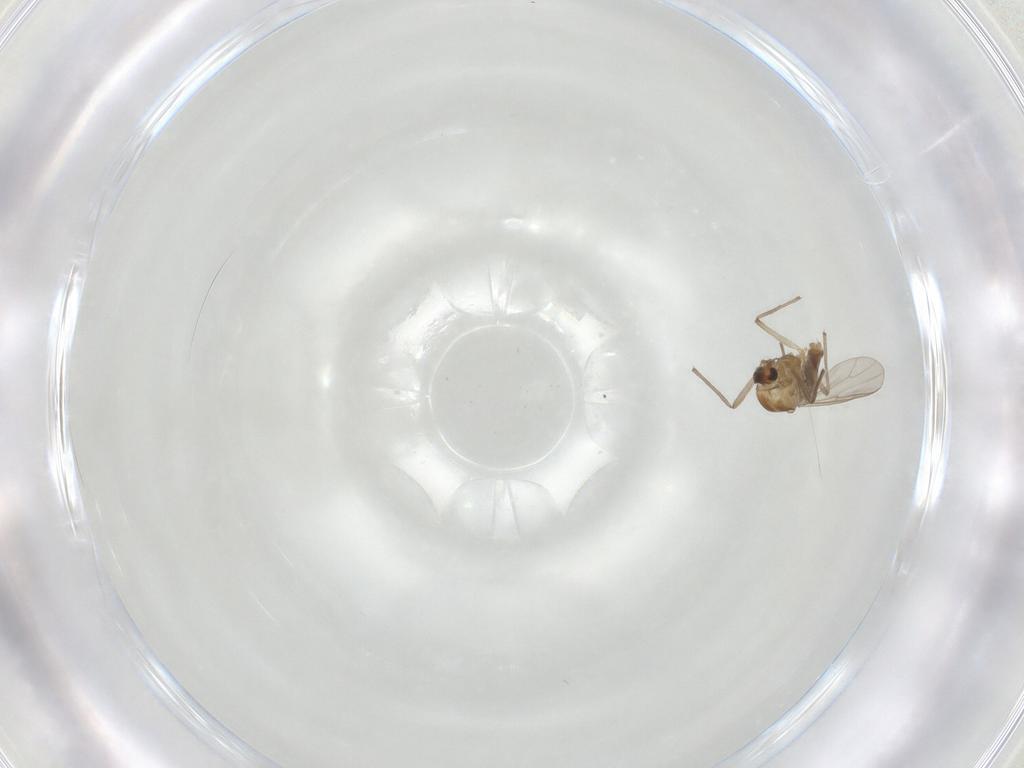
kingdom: Animalia
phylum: Arthropoda
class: Insecta
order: Diptera
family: Chironomidae
